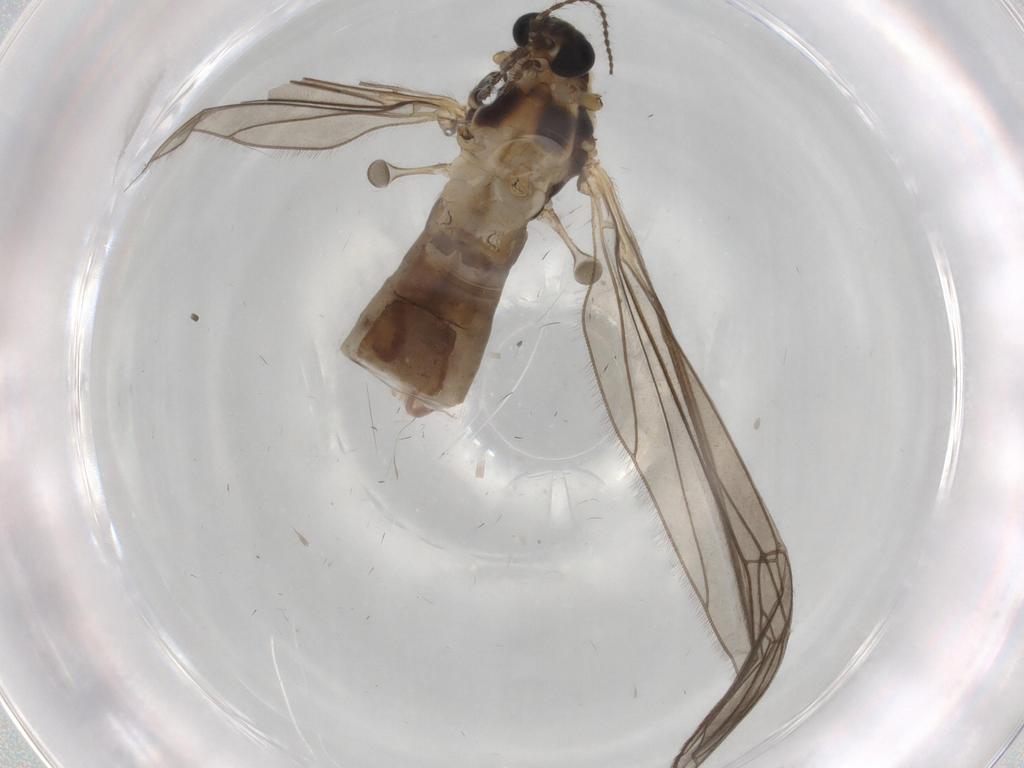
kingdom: Animalia
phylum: Arthropoda
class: Insecta
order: Diptera
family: Limoniidae
